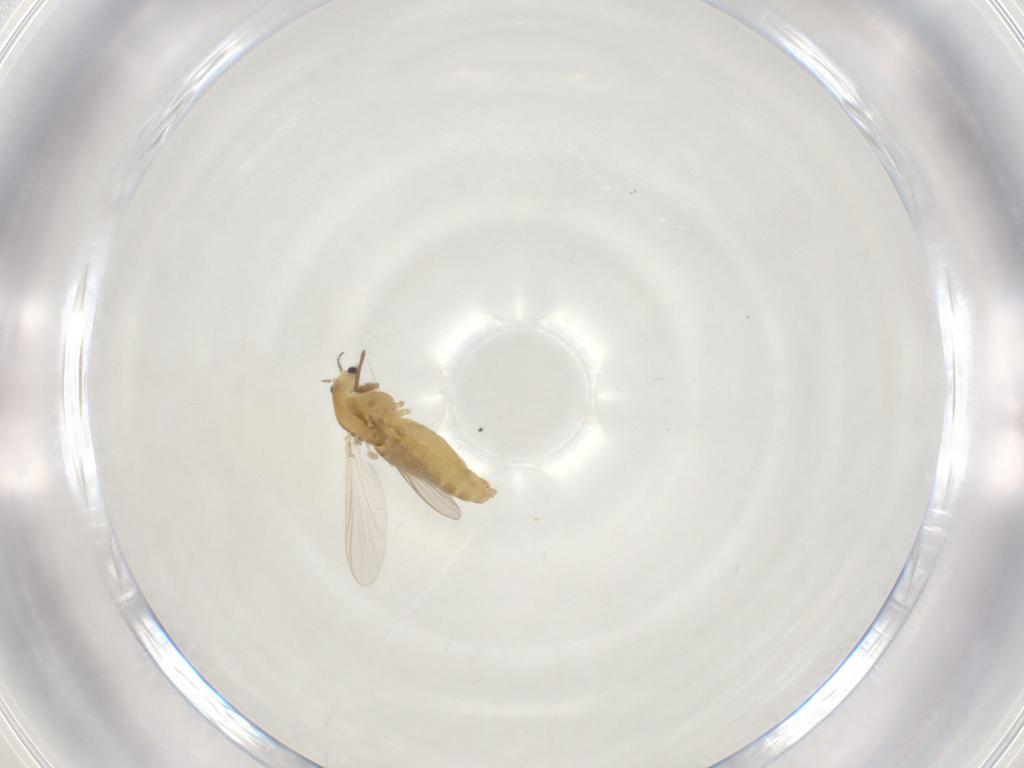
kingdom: Animalia
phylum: Arthropoda
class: Insecta
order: Diptera
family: Chironomidae
